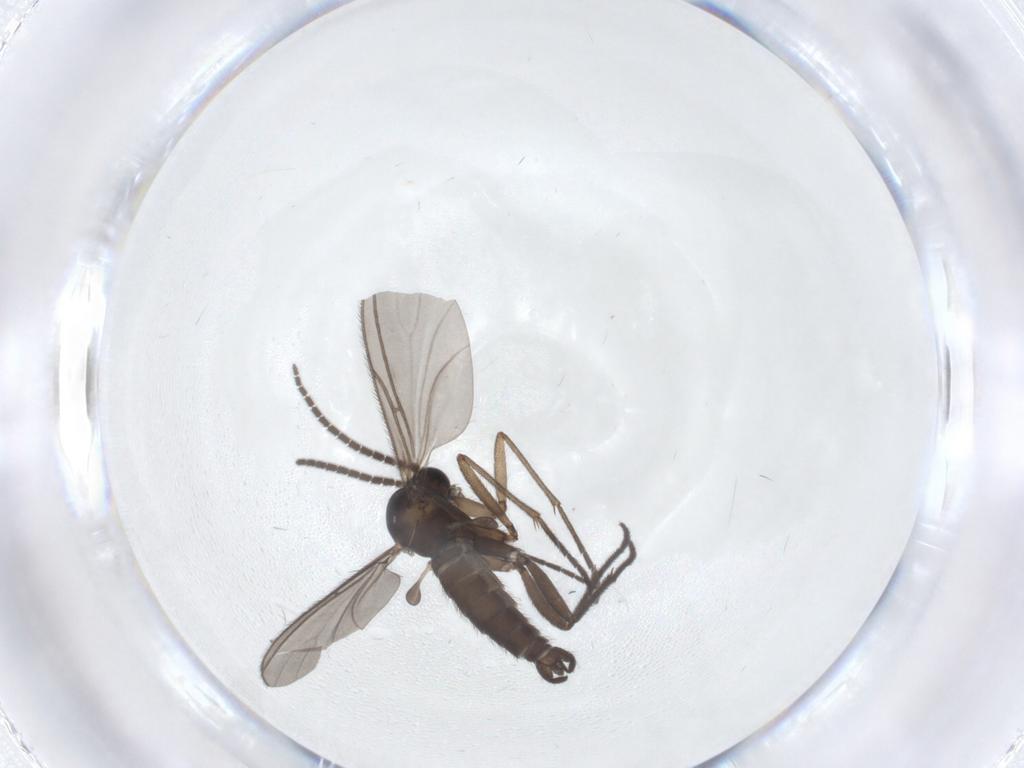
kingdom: Animalia
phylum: Arthropoda
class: Insecta
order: Diptera
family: Sciaridae
